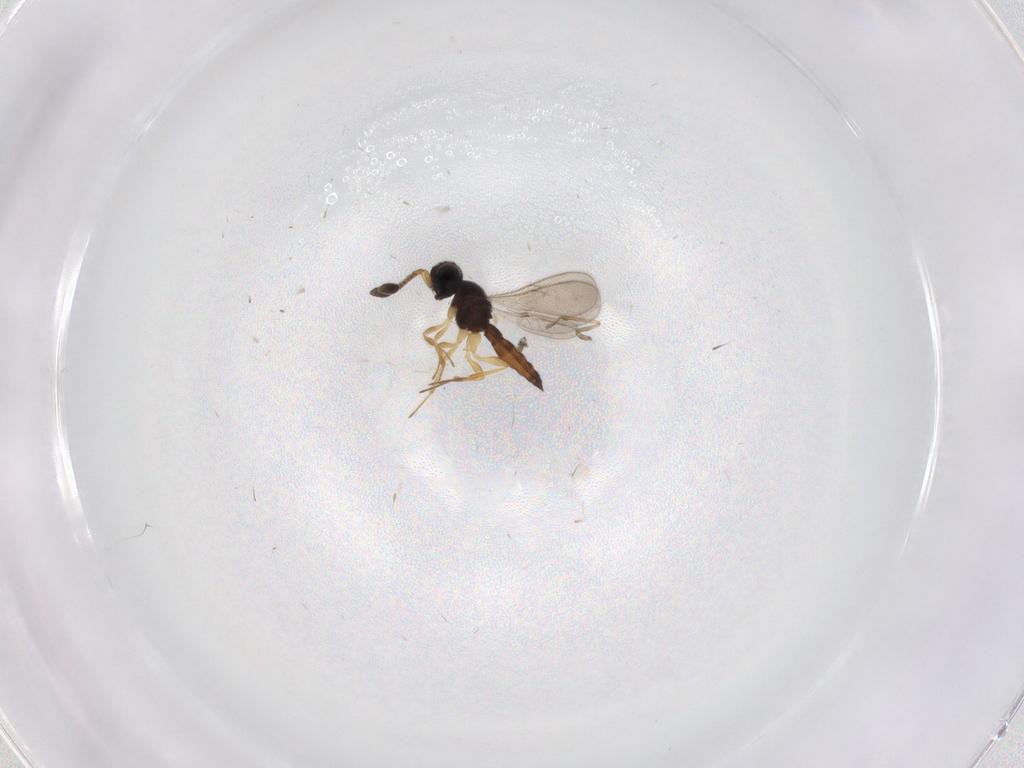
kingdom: Animalia
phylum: Arthropoda
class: Insecta
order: Hymenoptera
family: Scelionidae
